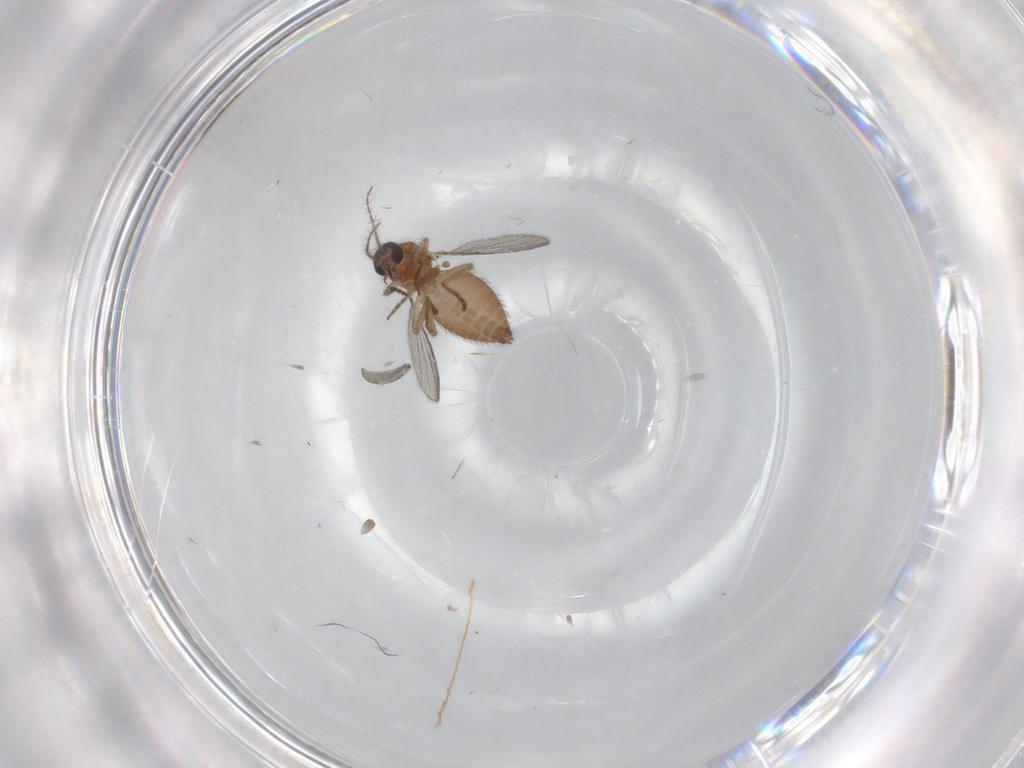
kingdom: Animalia
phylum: Arthropoda
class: Insecta
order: Diptera
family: Ceratopogonidae
